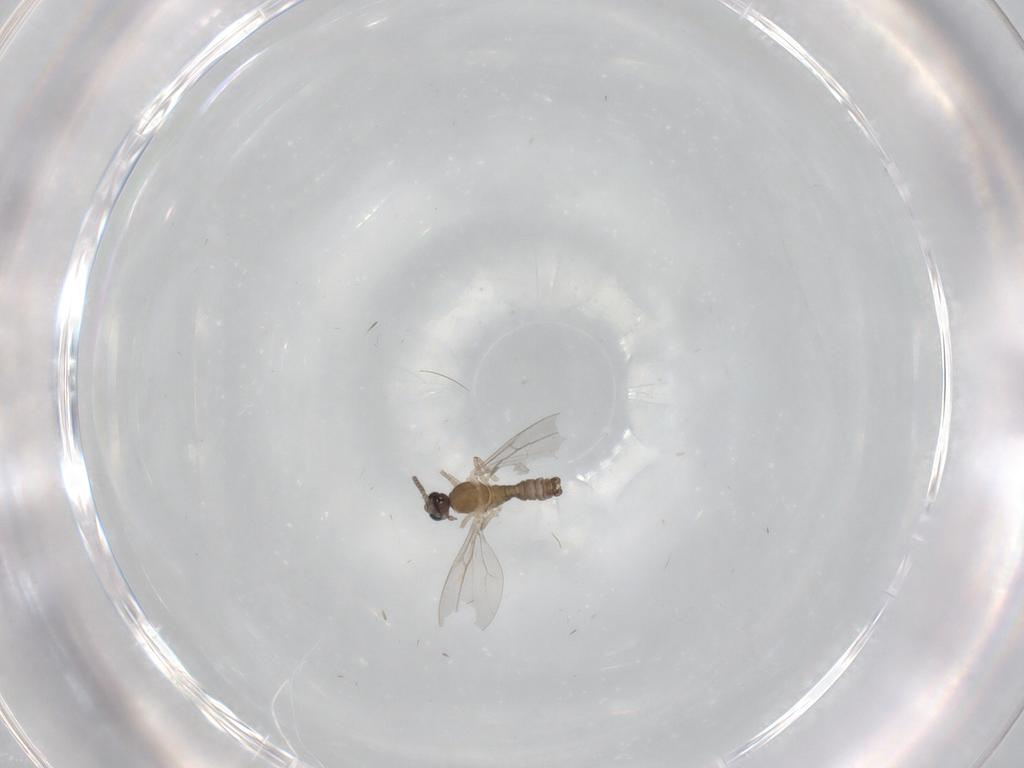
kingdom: Animalia
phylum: Arthropoda
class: Insecta
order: Diptera
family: Cecidomyiidae
